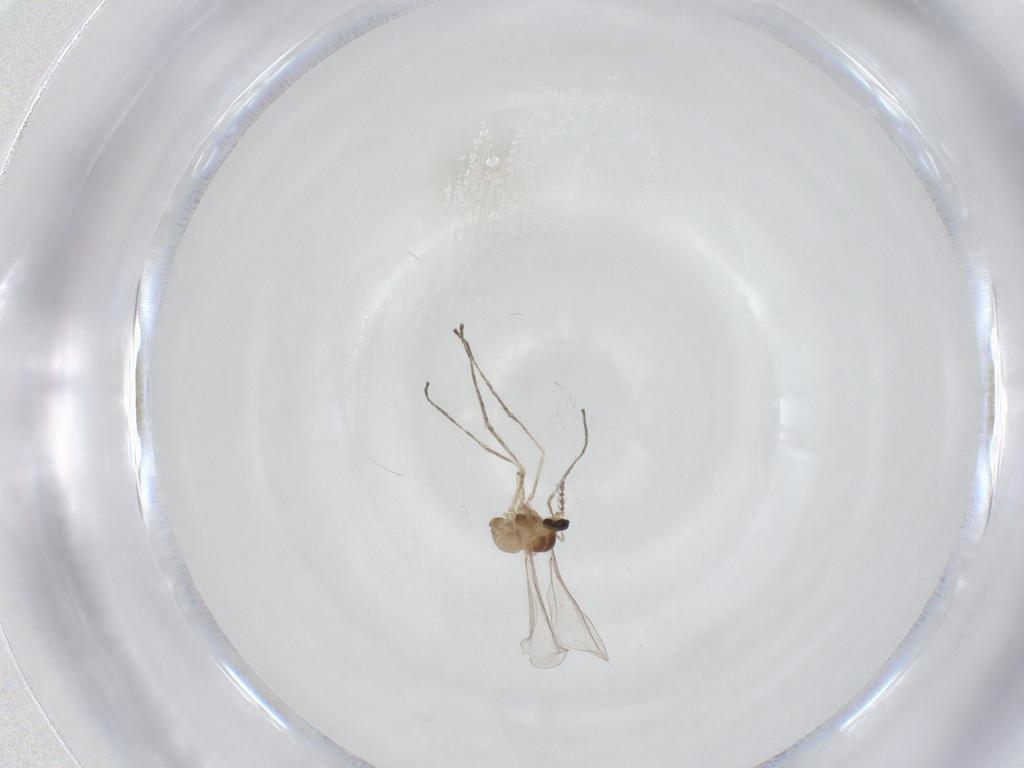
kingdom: Animalia
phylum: Arthropoda
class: Insecta
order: Diptera
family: Cecidomyiidae
